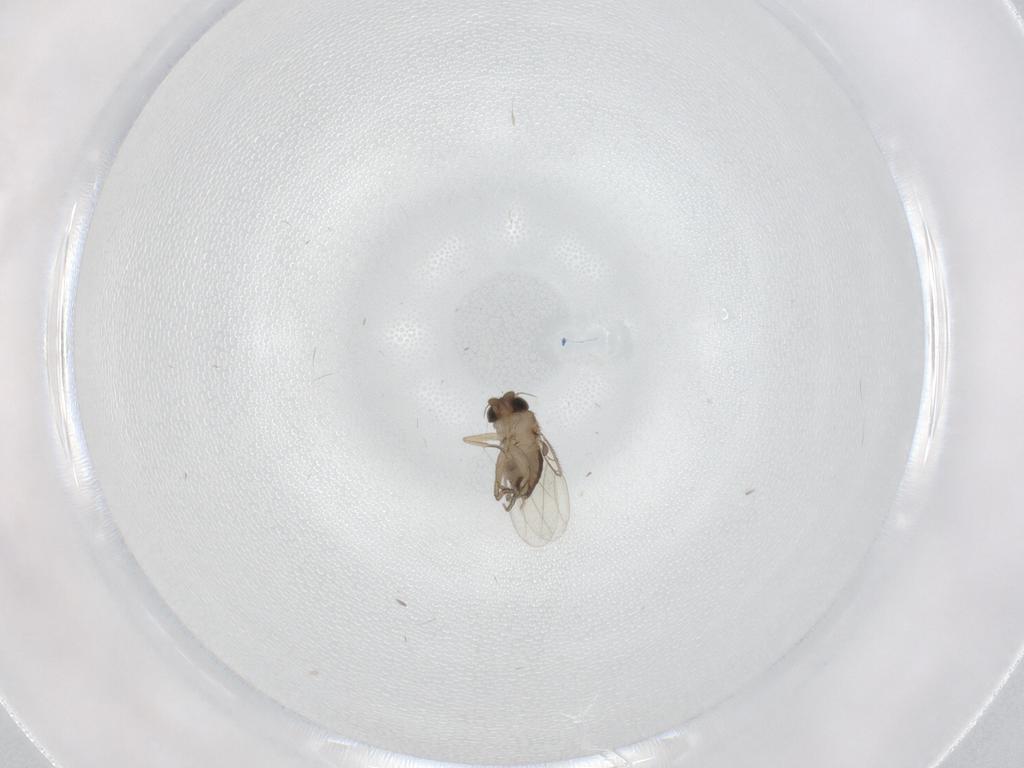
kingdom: Animalia
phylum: Arthropoda
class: Insecta
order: Diptera
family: Phoridae
